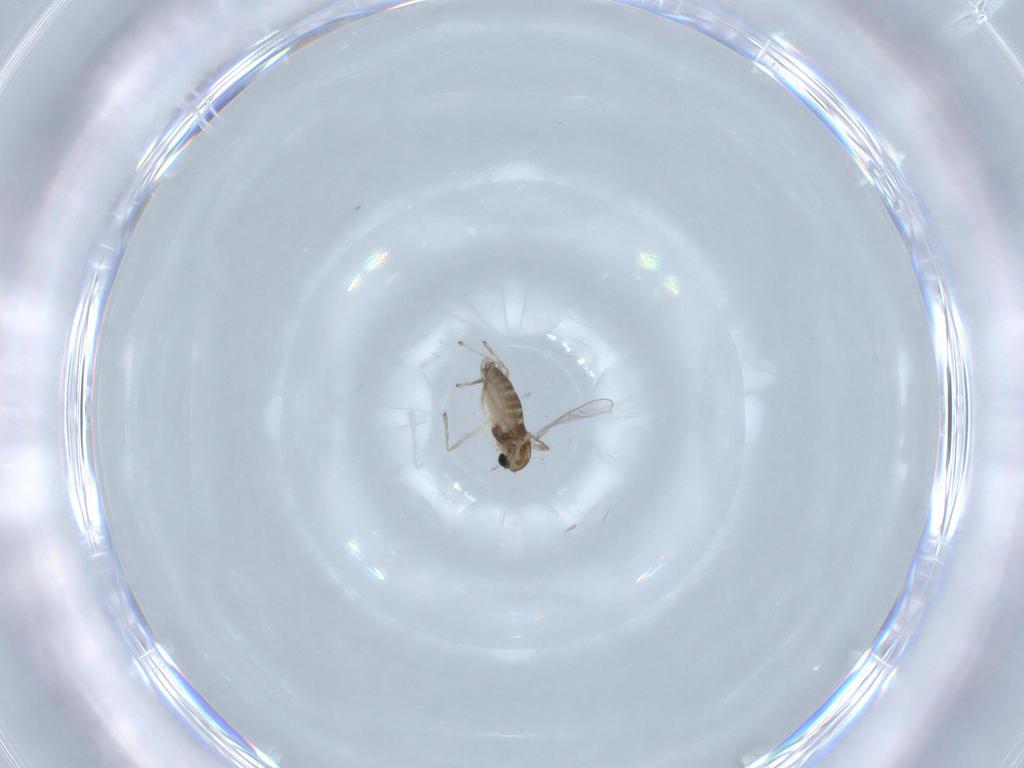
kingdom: Animalia
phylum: Arthropoda
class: Insecta
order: Diptera
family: Chironomidae
